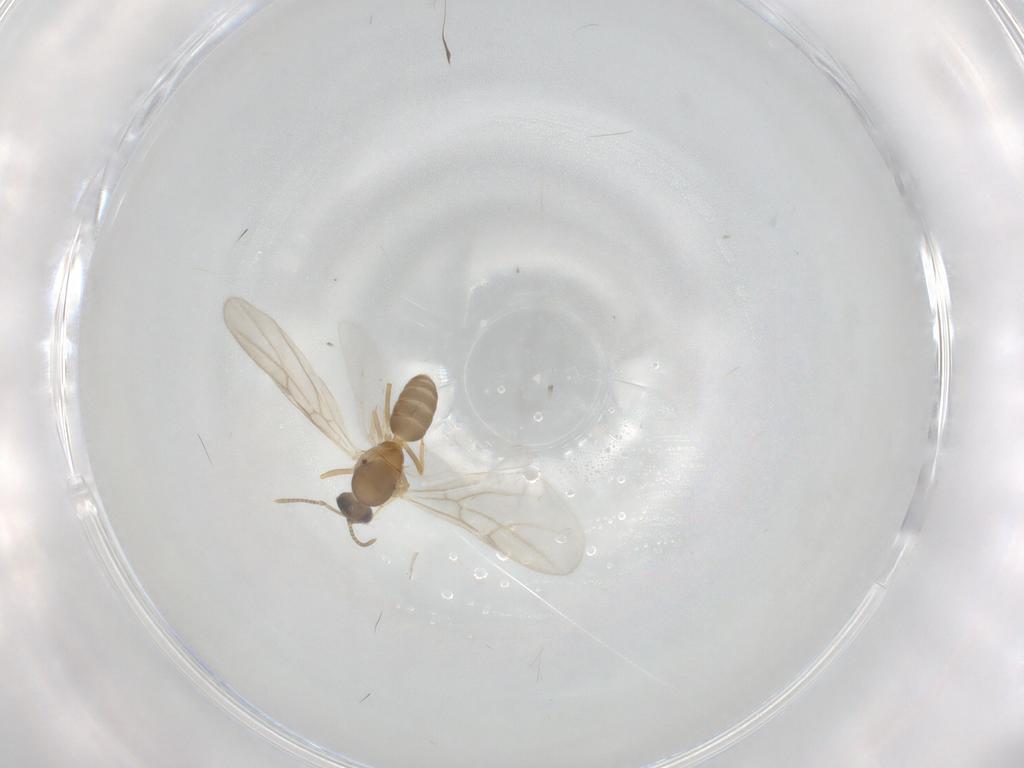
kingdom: Animalia
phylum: Arthropoda
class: Insecta
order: Hymenoptera
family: Formicidae
